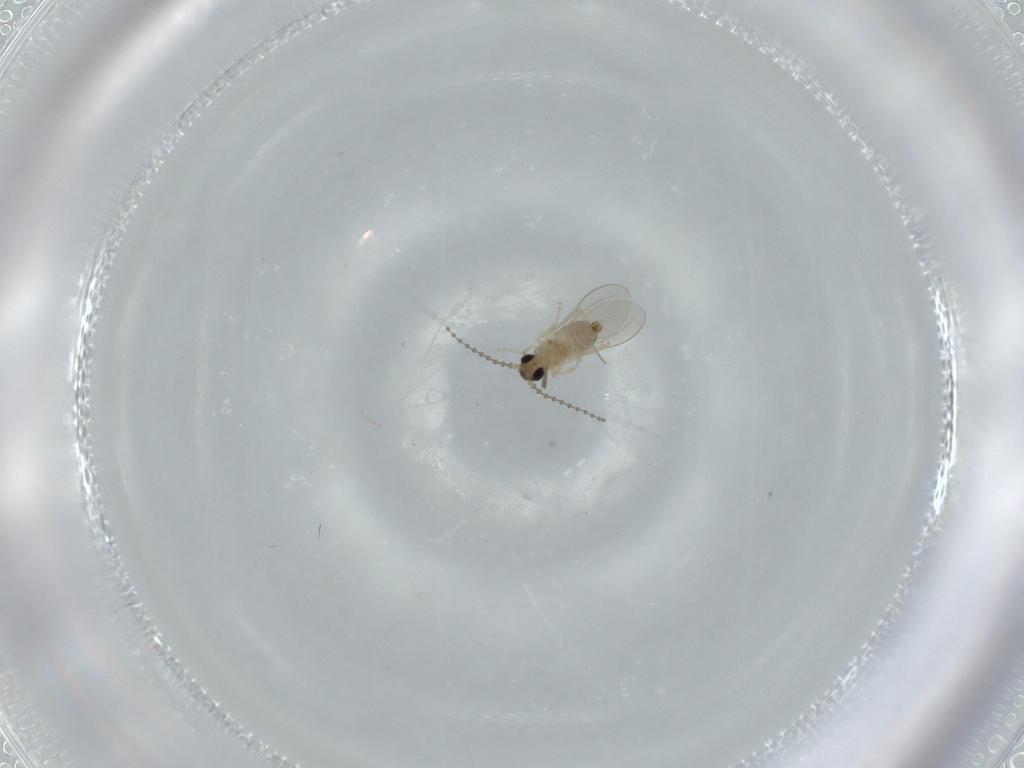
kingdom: Animalia
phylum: Arthropoda
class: Insecta
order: Diptera
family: Cecidomyiidae
